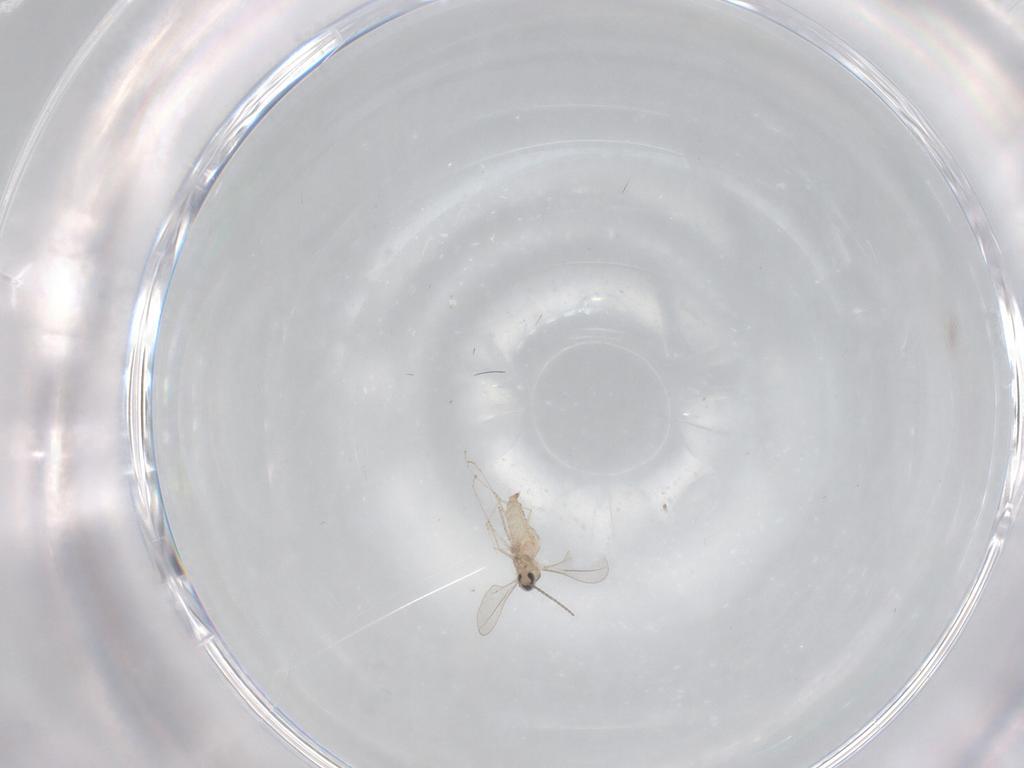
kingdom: Animalia
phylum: Arthropoda
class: Insecta
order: Diptera
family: Cecidomyiidae
